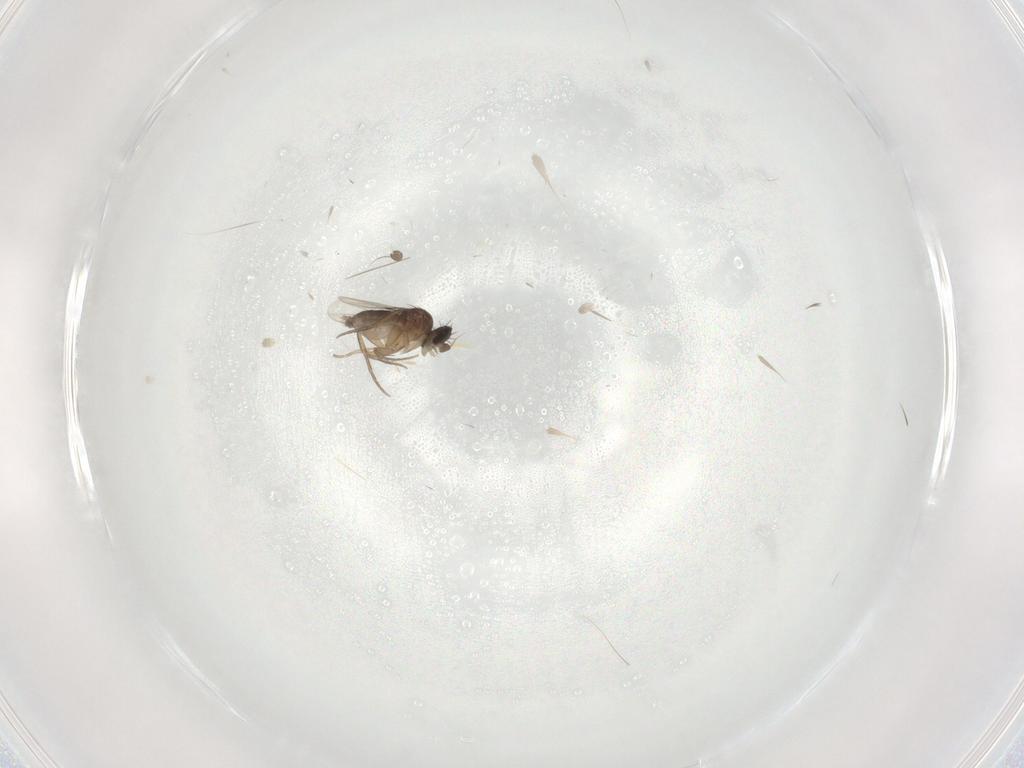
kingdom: Animalia
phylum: Arthropoda
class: Insecta
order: Diptera
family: Phoridae
